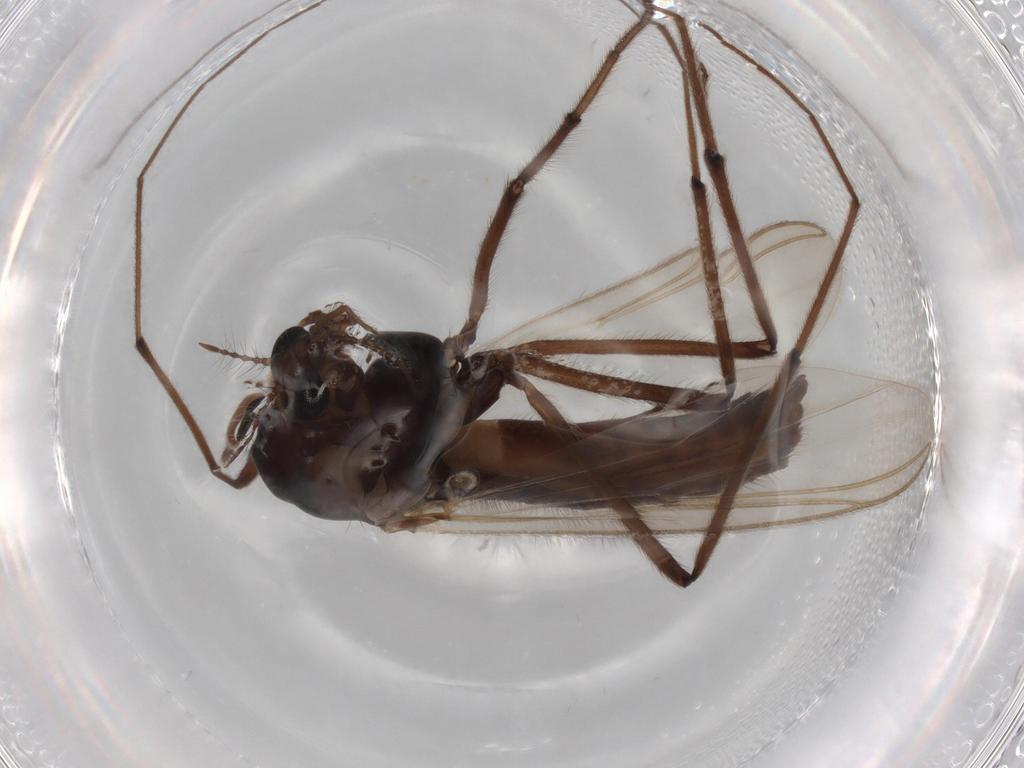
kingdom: Animalia
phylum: Arthropoda
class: Insecta
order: Diptera
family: Chironomidae
